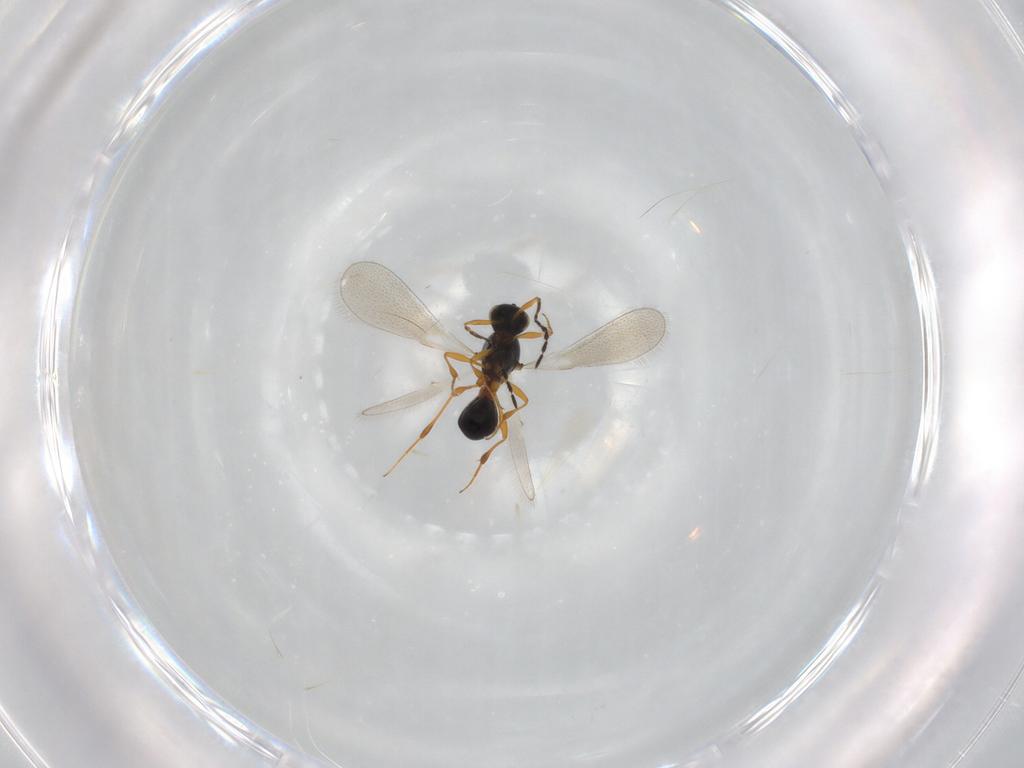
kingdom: Animalia
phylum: Arthropoda
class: Insecta
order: Hymenoptera
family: Platygastridae
